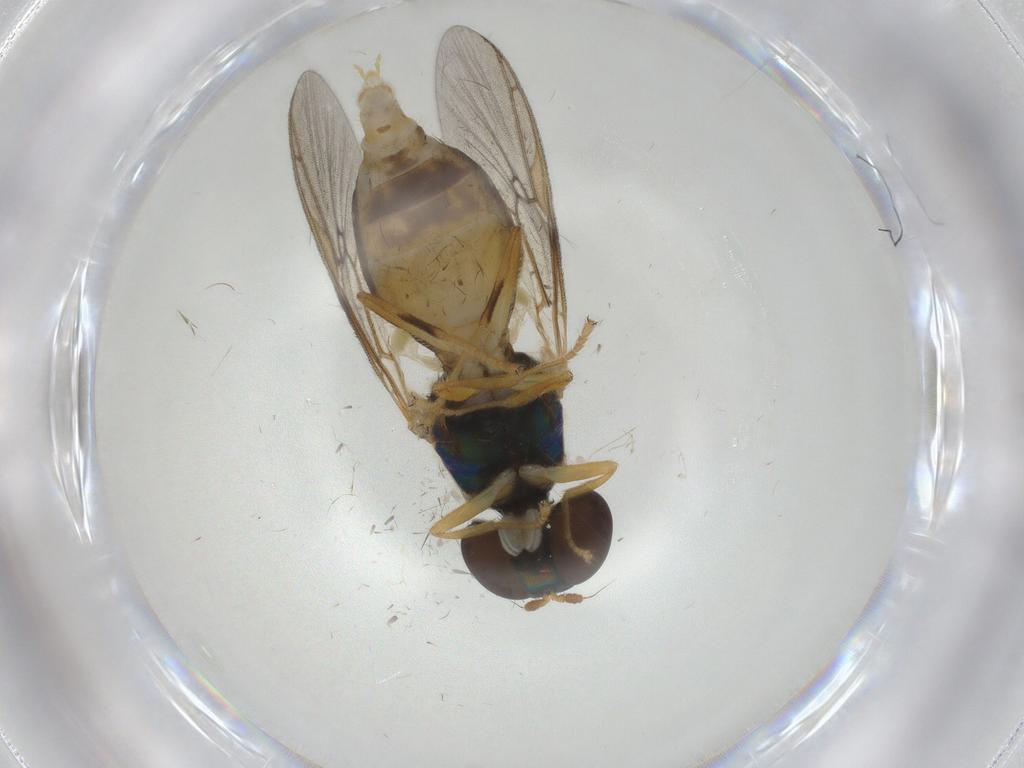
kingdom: Animalia
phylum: Arthropoda
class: Insecta
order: Diptera
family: Sphaeroceridae
